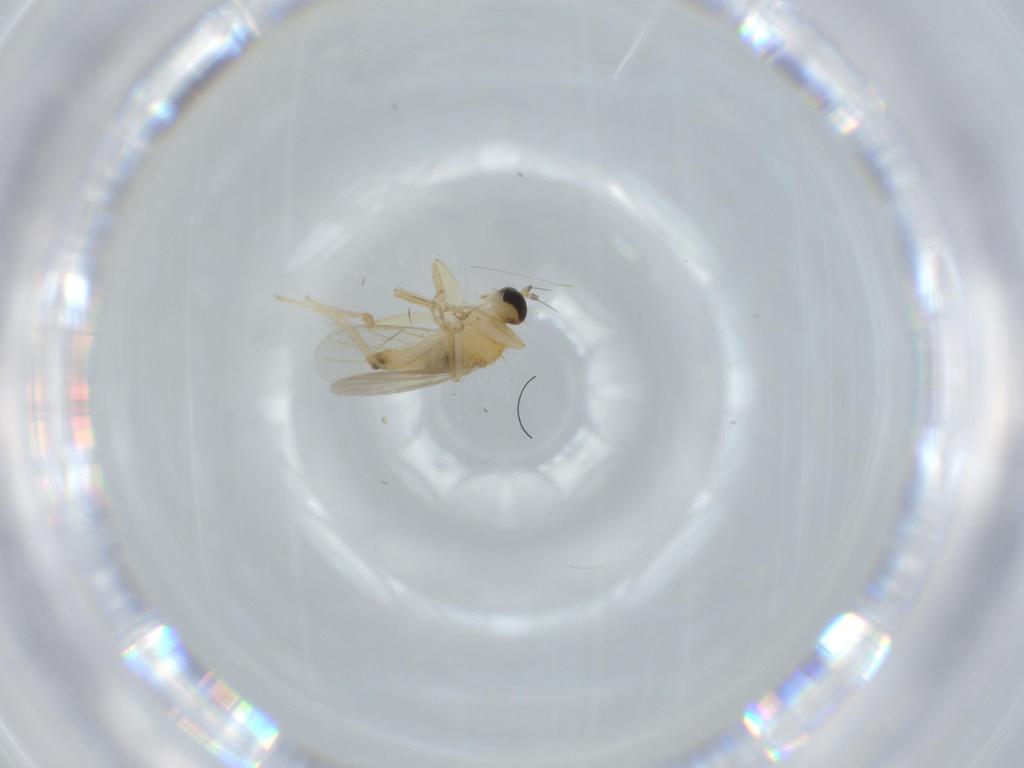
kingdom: Animalia
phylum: Arthropoda
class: Insecta
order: Diptera
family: Hybotidae
